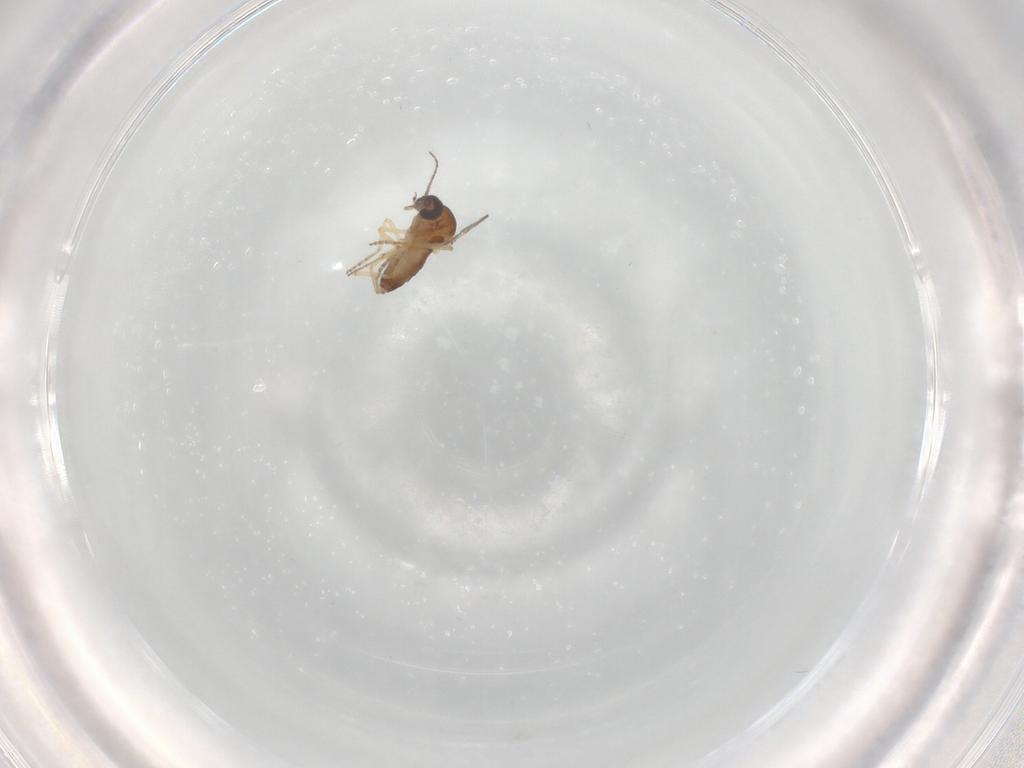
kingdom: Animalia
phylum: Arthropoda
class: Insecta
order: Diptera
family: Ceratopogonidae
